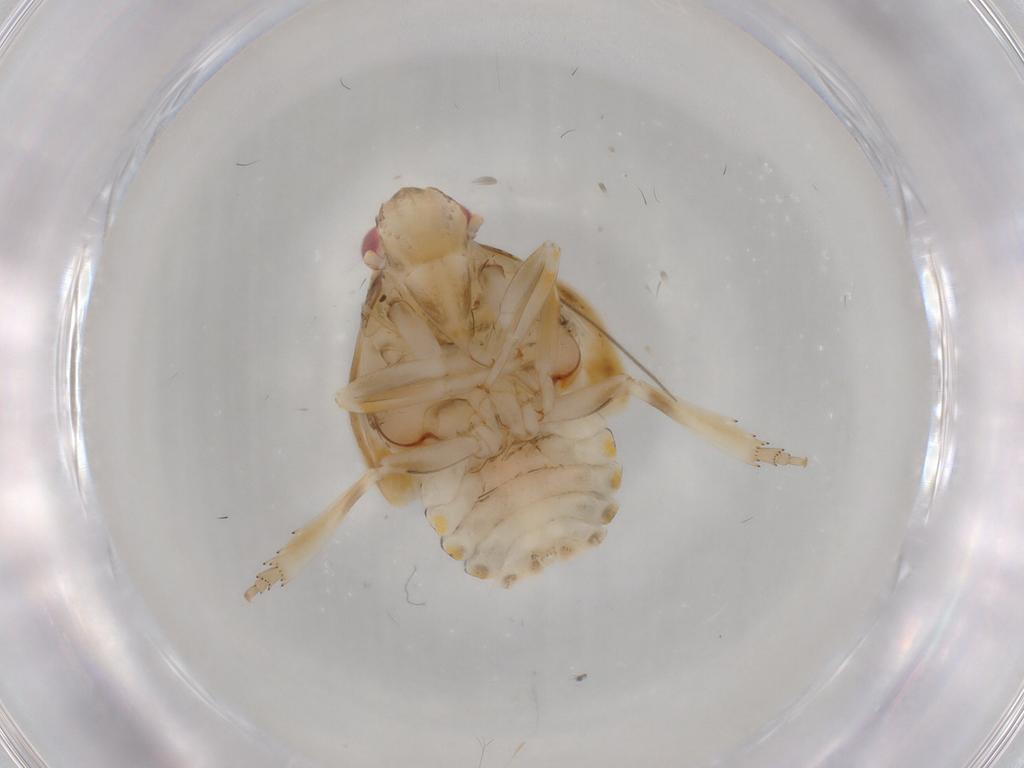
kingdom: Animalia
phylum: Arthropoda
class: Insecta
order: Hemiptera
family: Flatidae
